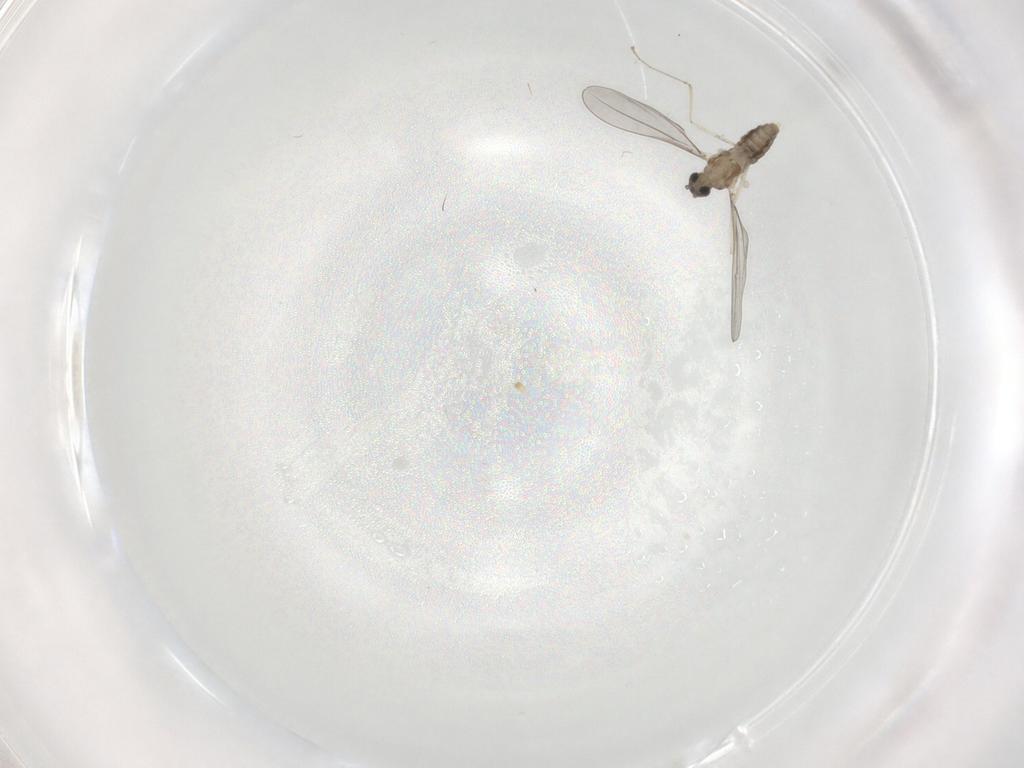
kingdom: Animalia
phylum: Arthropoda
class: Insecta
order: Diptera
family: Cecidomyiidae
